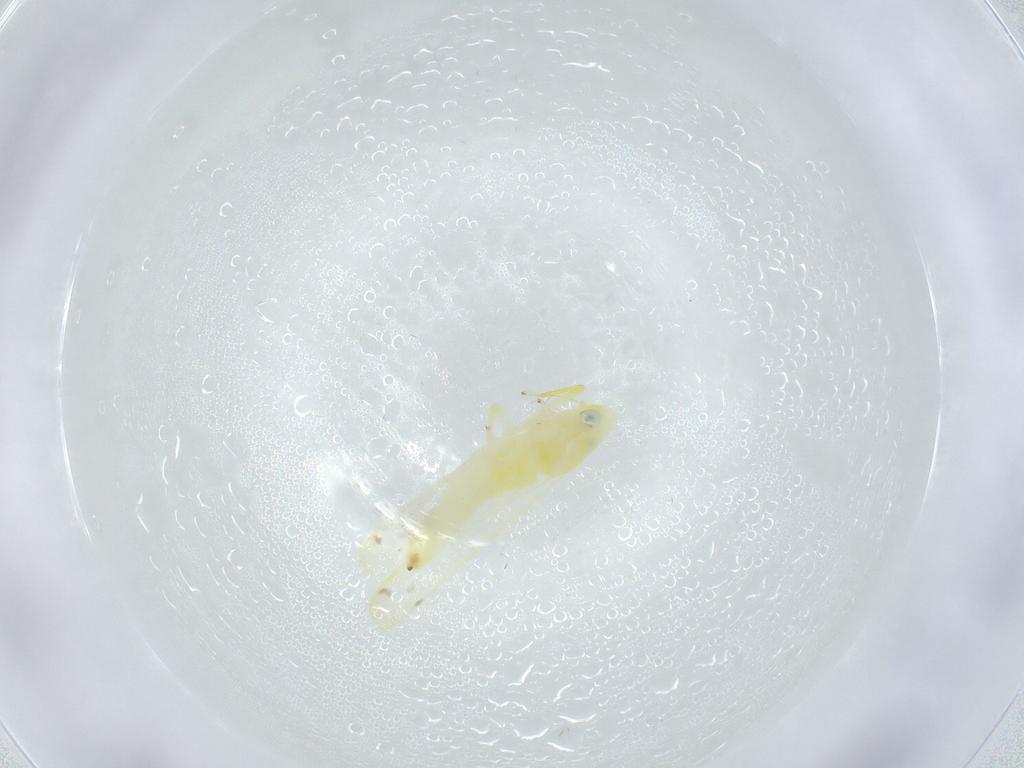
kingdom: Animalia
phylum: Arthropoda
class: Insecta
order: Hemiptera
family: Cicadellidae
